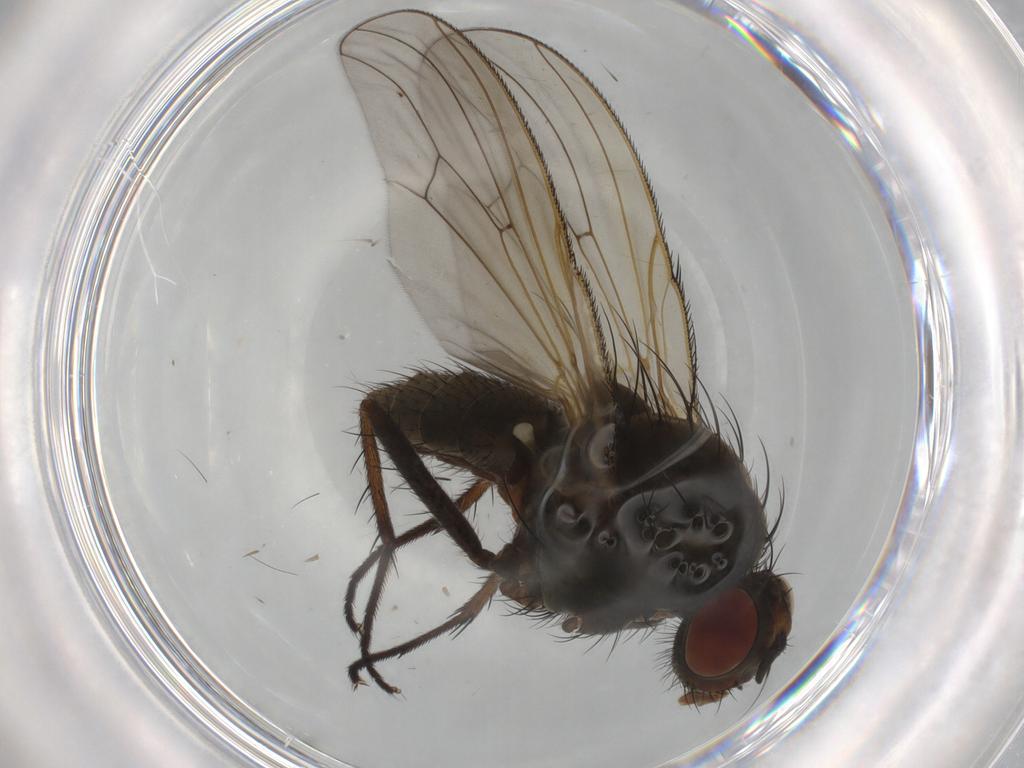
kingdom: Animalia
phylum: Arthropoda
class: Insecta
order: Diptera
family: Anthomyiidae
